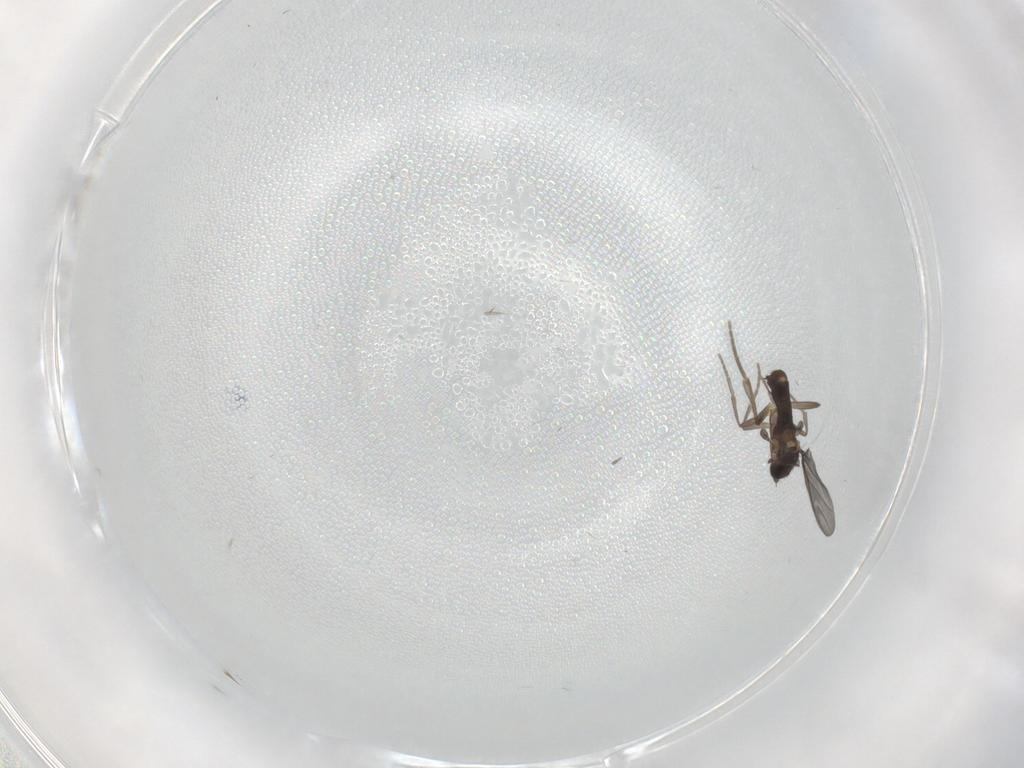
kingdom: Animalia
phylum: Arthropoda
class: Insecta
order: Diptera
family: Phoridae
